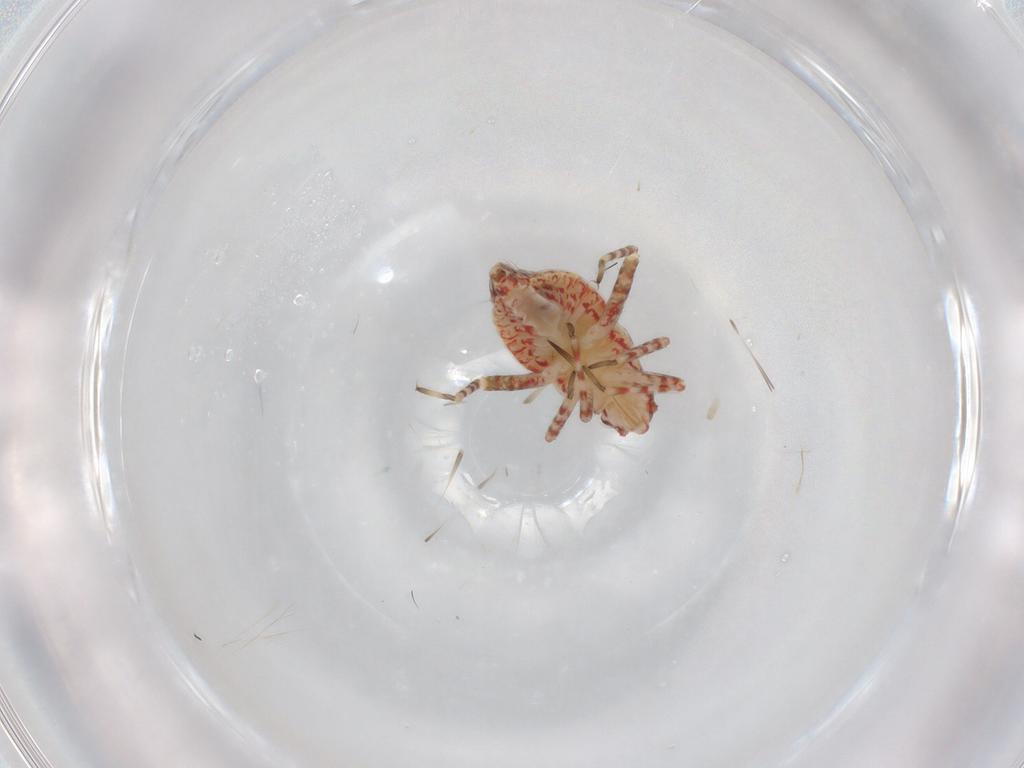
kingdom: Animalia
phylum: Arthropoda
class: Insecta
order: Hemiptera
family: Miridae
